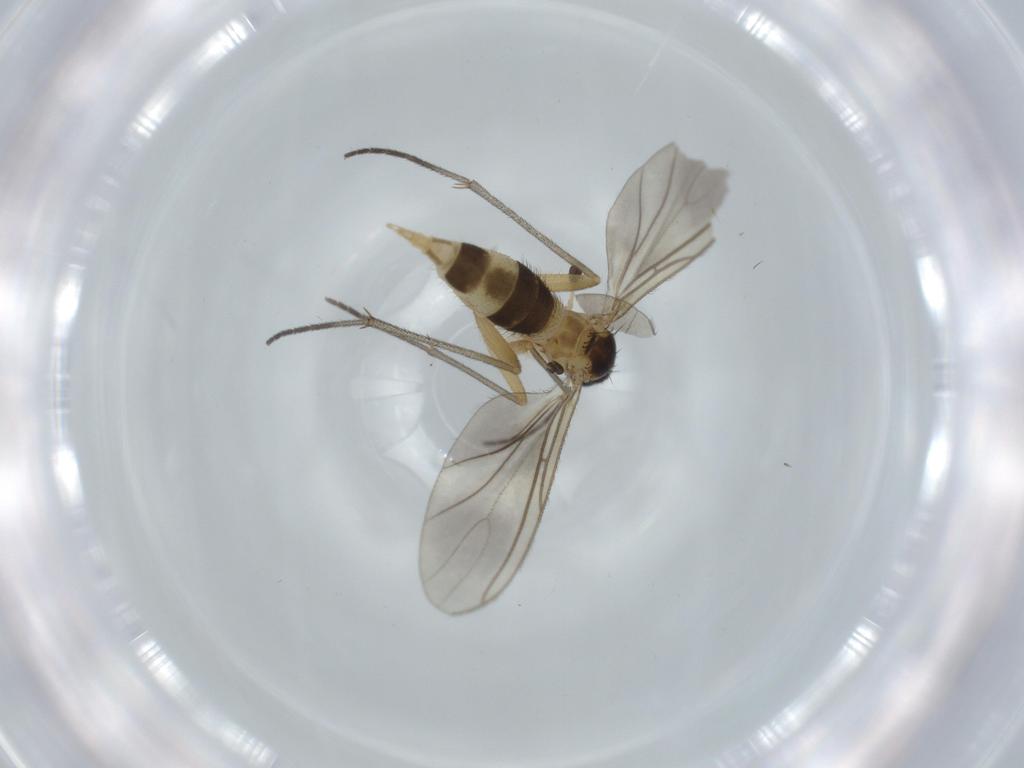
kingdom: Animalia
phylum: Arthropoda
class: Insecta
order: Diptera
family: Sciaridae
